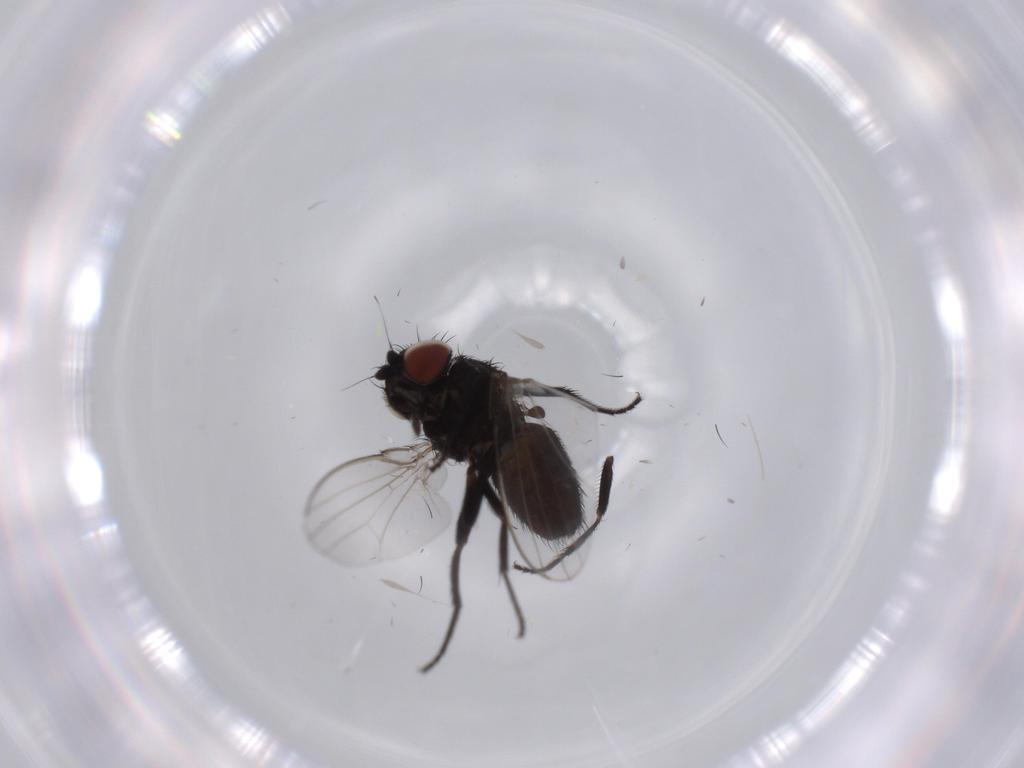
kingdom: Animalia
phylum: Arthropoda
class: Insecta
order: Diptera
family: Milichiidae
